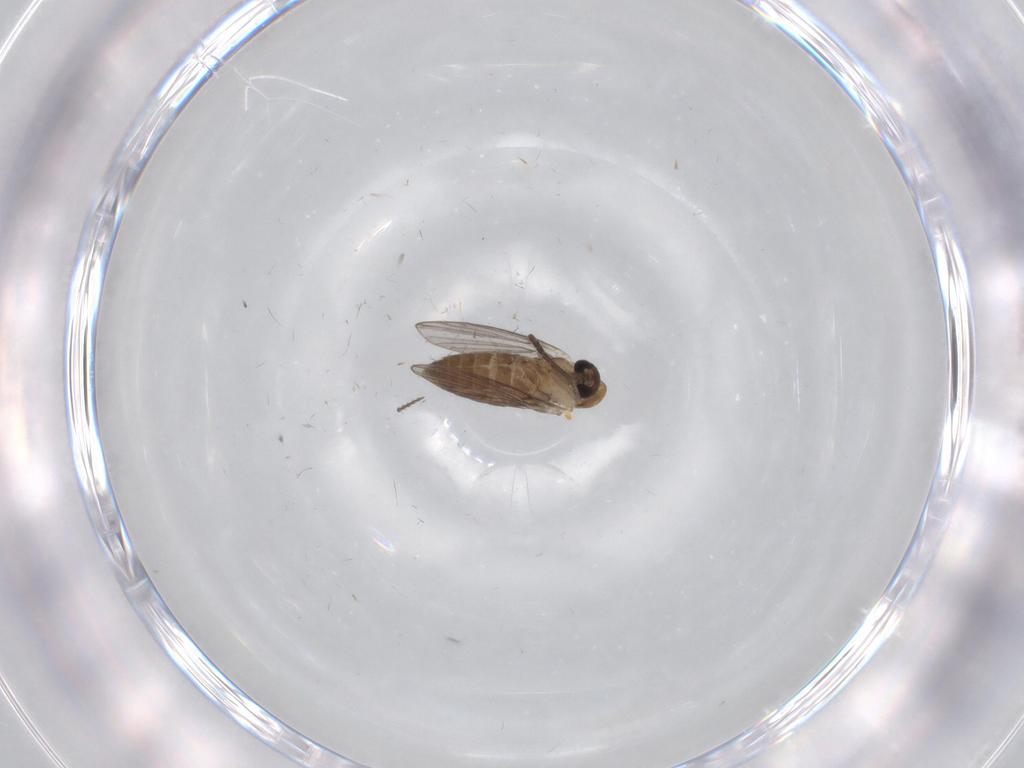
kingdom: Animalia
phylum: Arthropoda
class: Insecta
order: Diptera
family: Psychodidae
